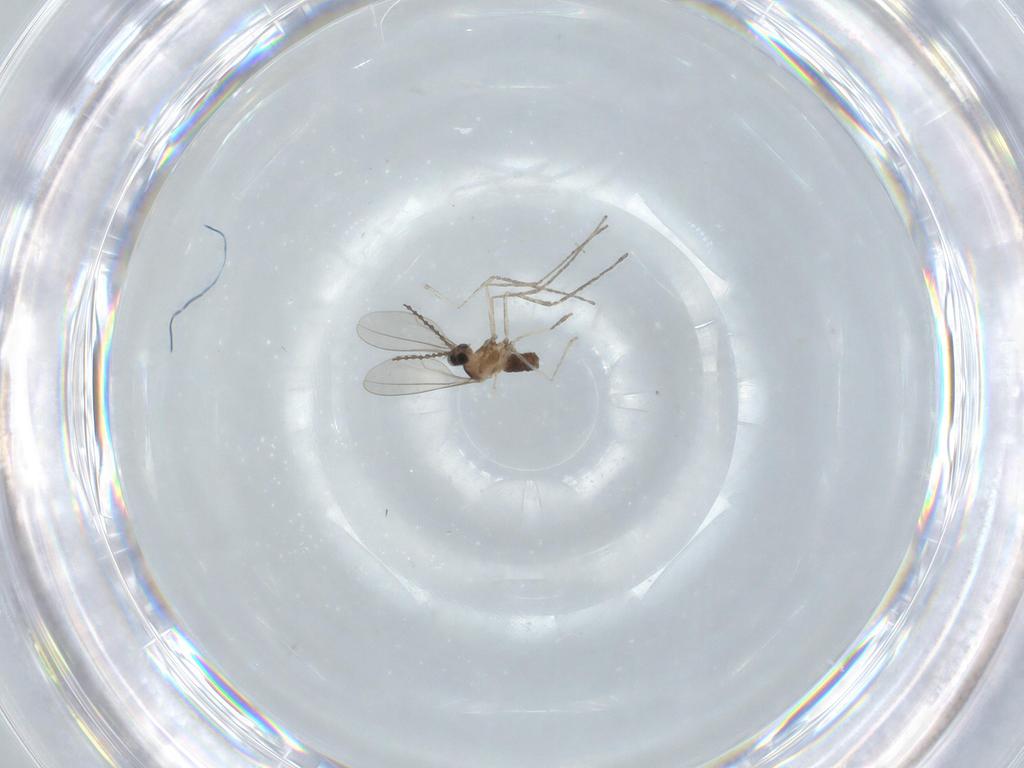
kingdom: Animalia
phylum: Arthropoda
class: Insecta
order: Diptera
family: Cecidomyiidae
